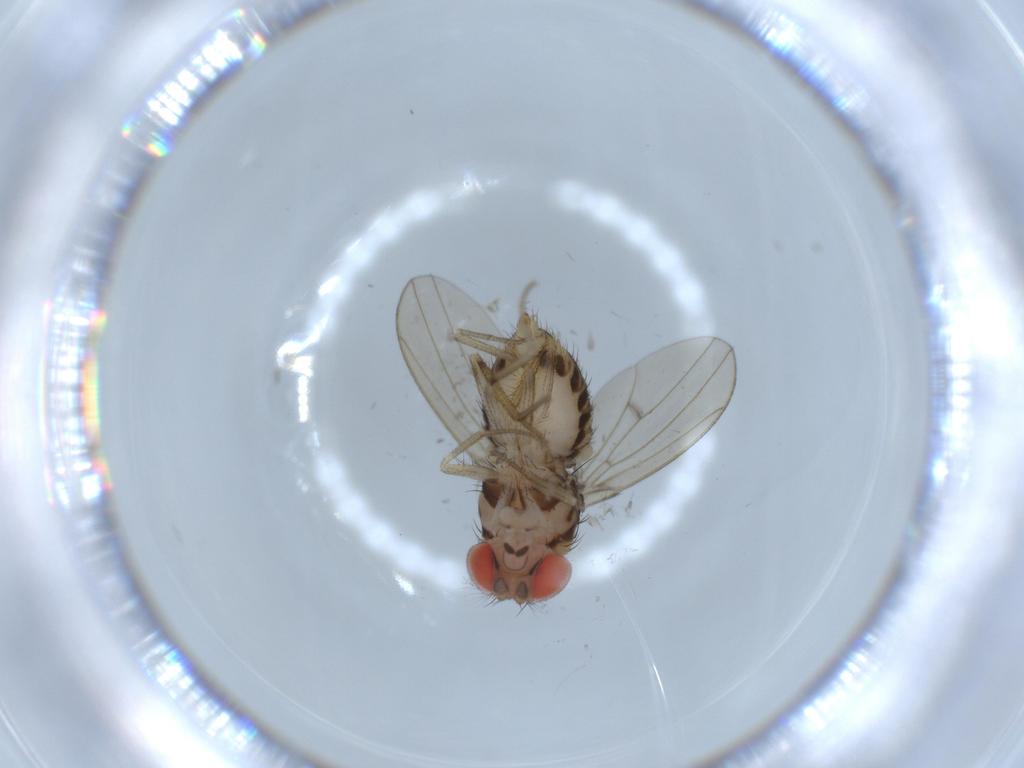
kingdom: Animalia
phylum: Arthropoda
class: Insecta
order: Diptera
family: Drosophilidae
